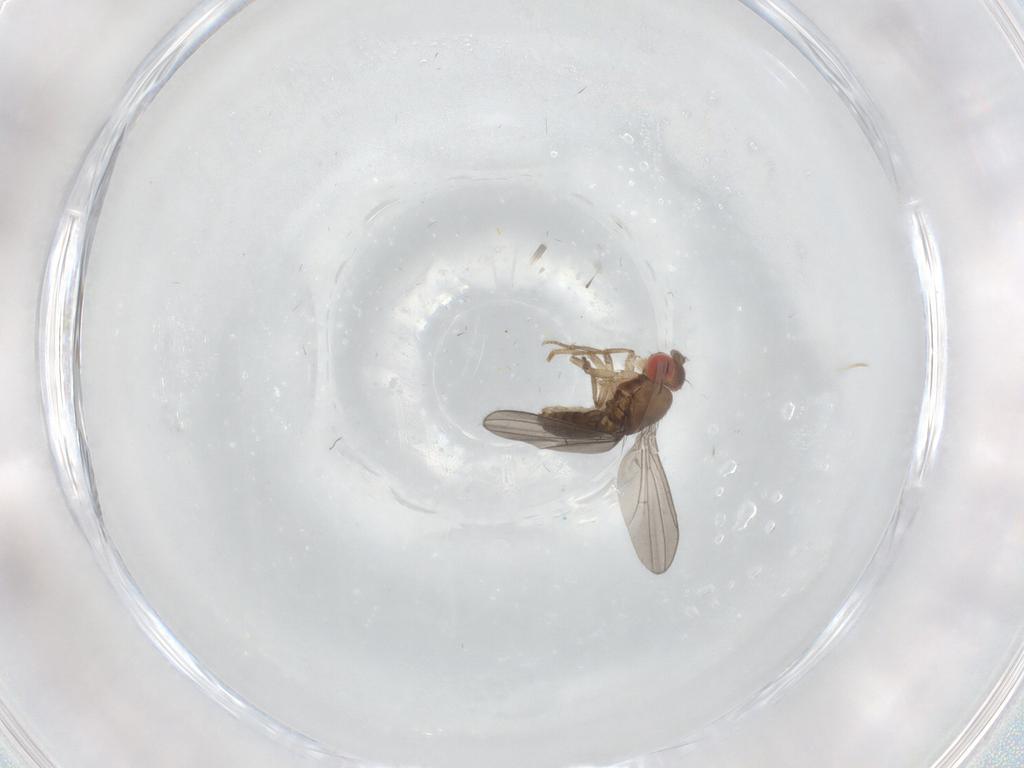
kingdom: Animalia
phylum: Arthropoda
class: Insecta
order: Diptera
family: Drosophilidae
